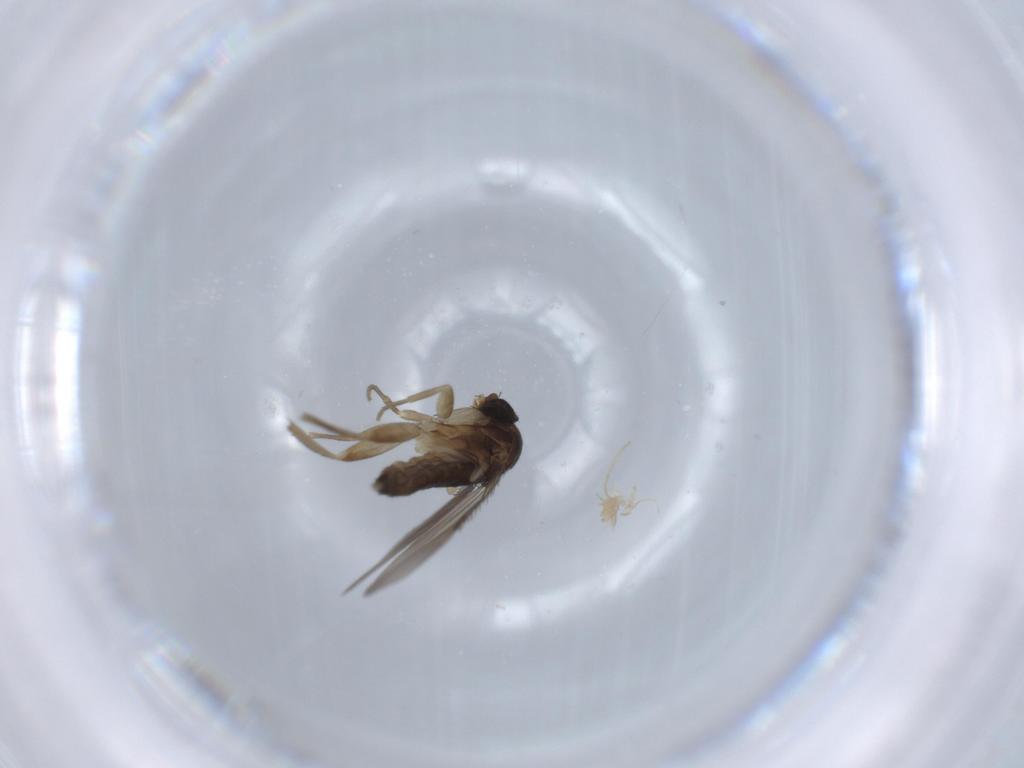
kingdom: Animalia
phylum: Arthropoda
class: Insecta
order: Diptera
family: Phoridae
